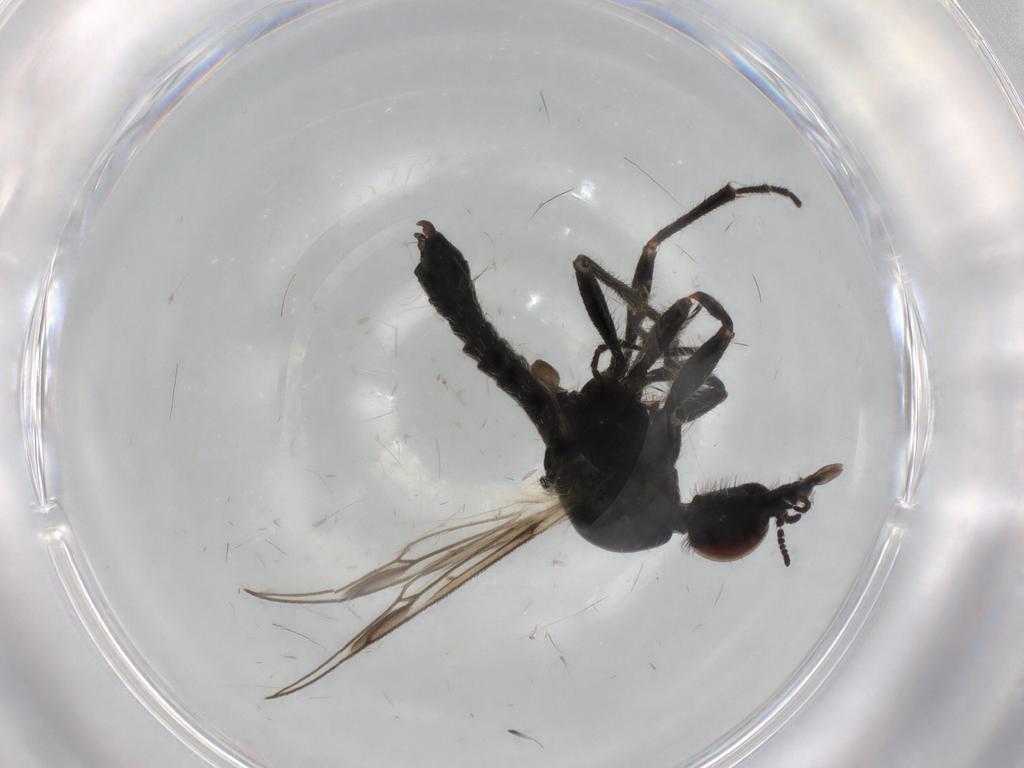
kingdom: Animalia
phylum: Arthropoda
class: Insecta
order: Diptera
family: Bibionidae
